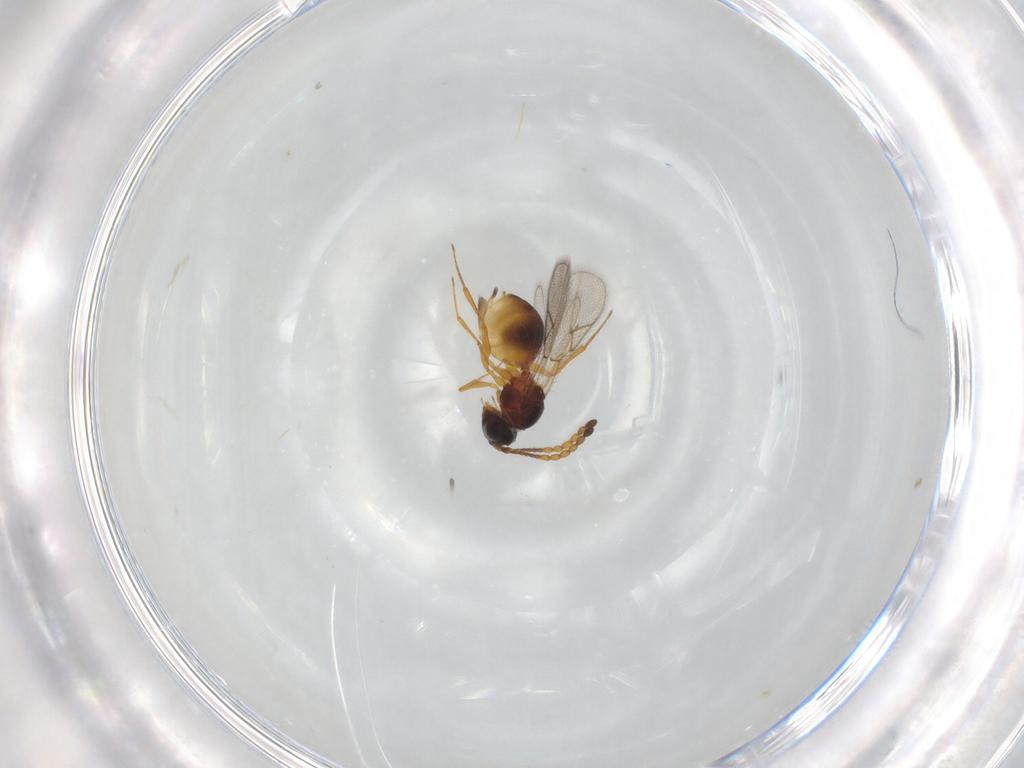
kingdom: Animalia
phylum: Arthropoda
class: Insecta
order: Hymenoptera
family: Figitidae
